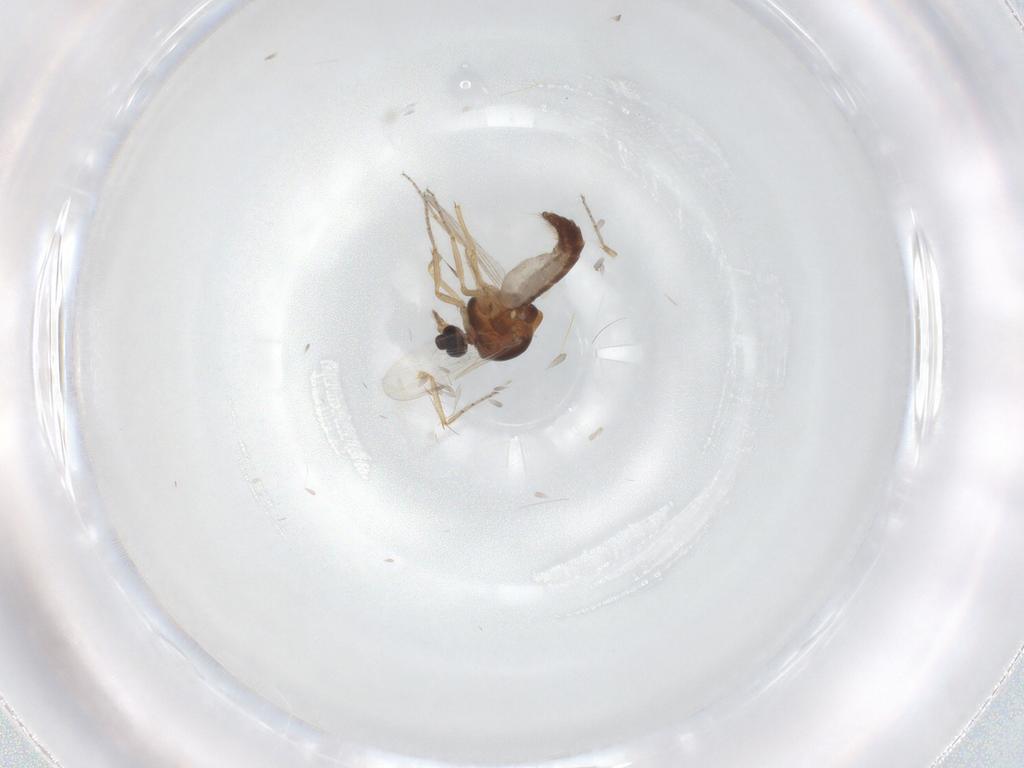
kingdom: Animalia
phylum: Arthropoda
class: Insecta
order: Diptera
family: Ceratopogonidae
